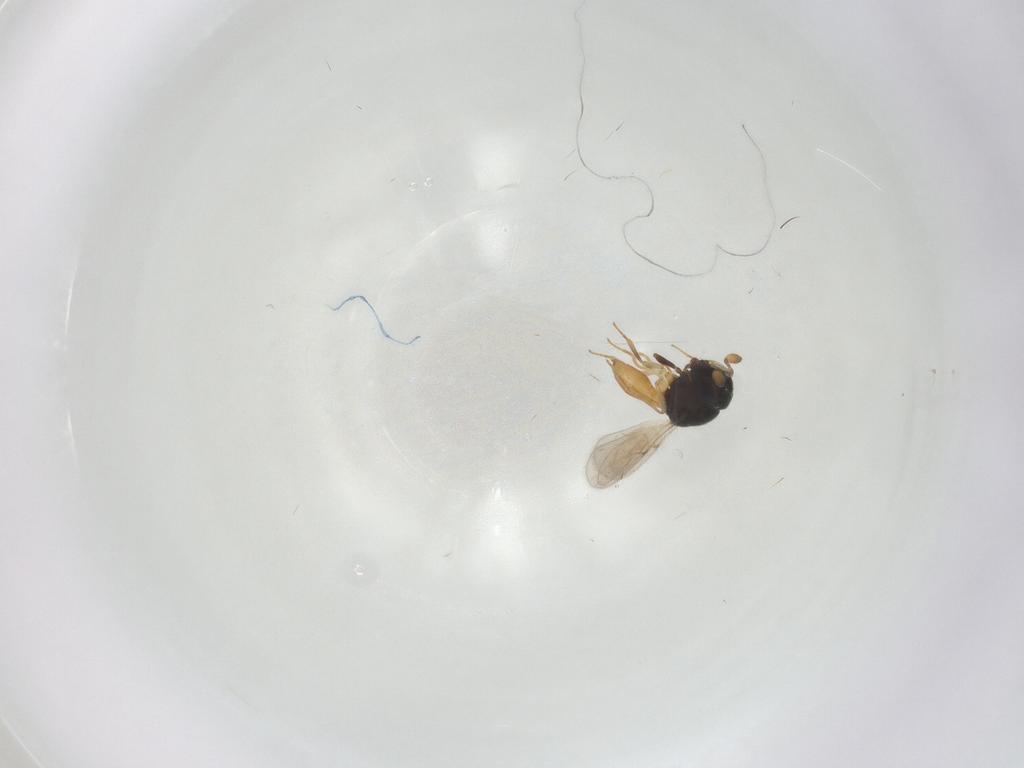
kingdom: Animalia
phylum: Arthropoda
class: Insecta
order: Hymenoptera
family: Scelionidae
